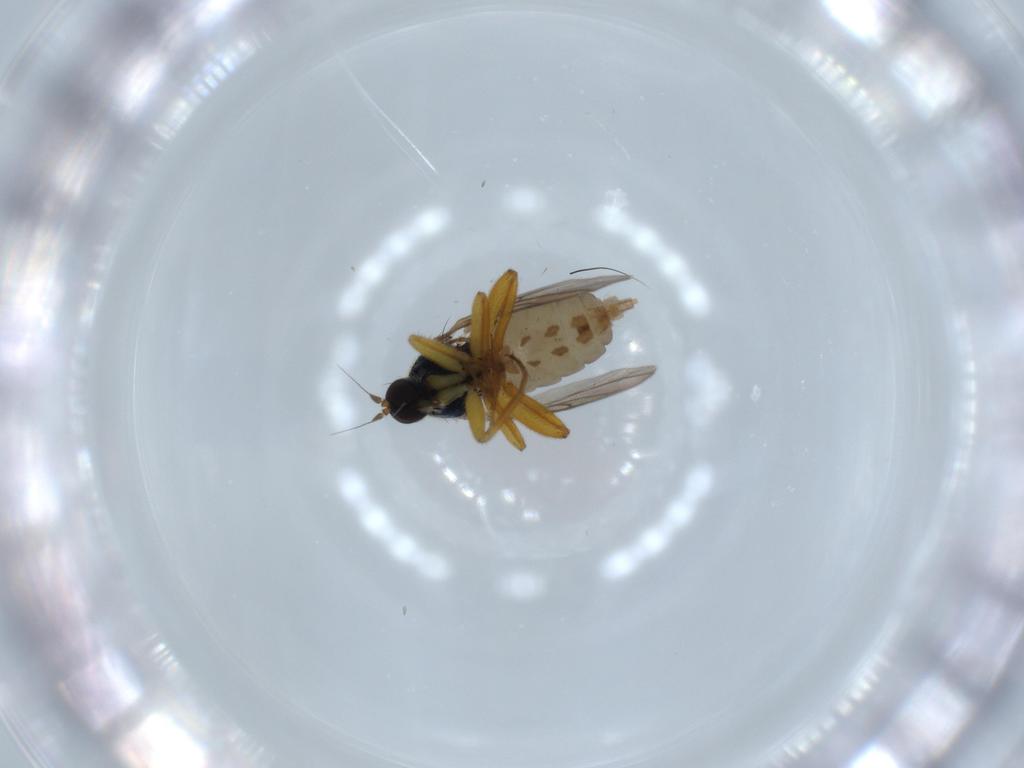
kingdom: Animalia
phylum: Arthropoda
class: Insecta
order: Diptera
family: Hybotidae
